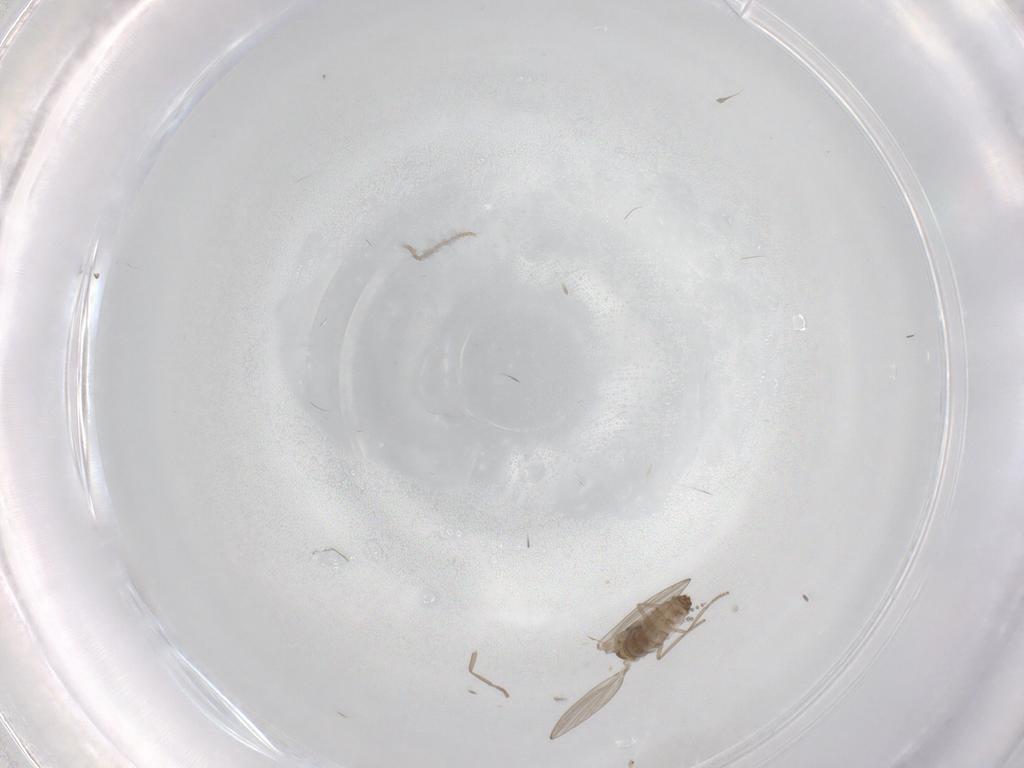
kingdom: Animalia
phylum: Arthropoda
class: Insecta
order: Diptera
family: Psychodidae
